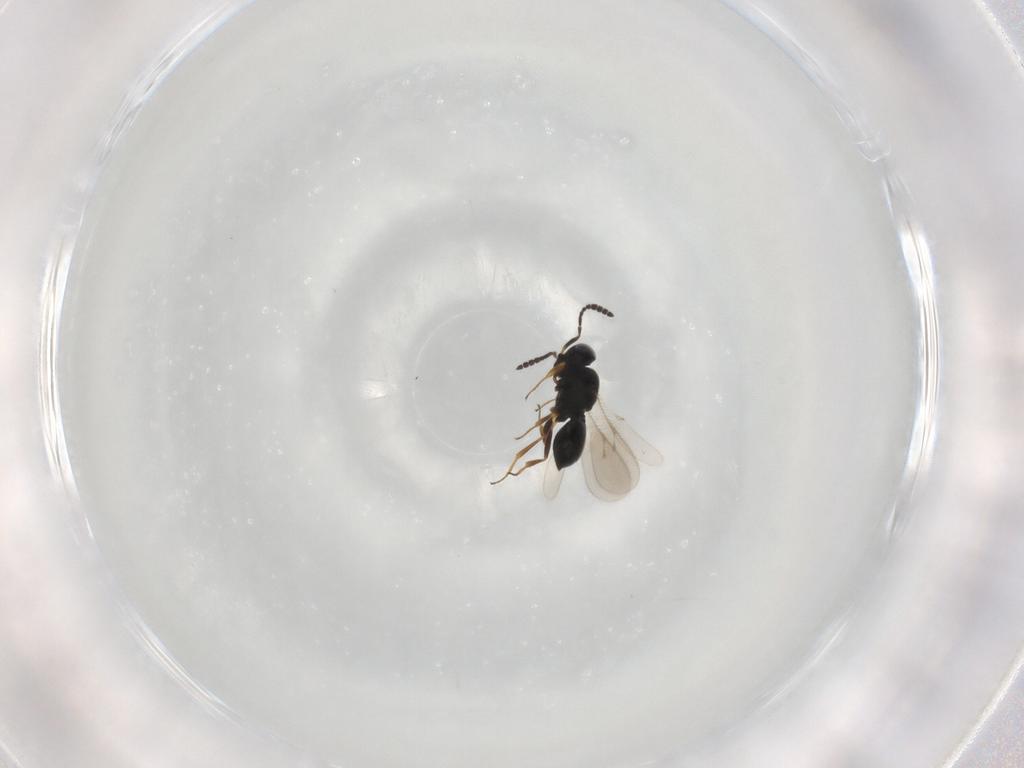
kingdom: Animalia
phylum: Arthropoda
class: Insecta
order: Hymenoptera
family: Scelionidae
